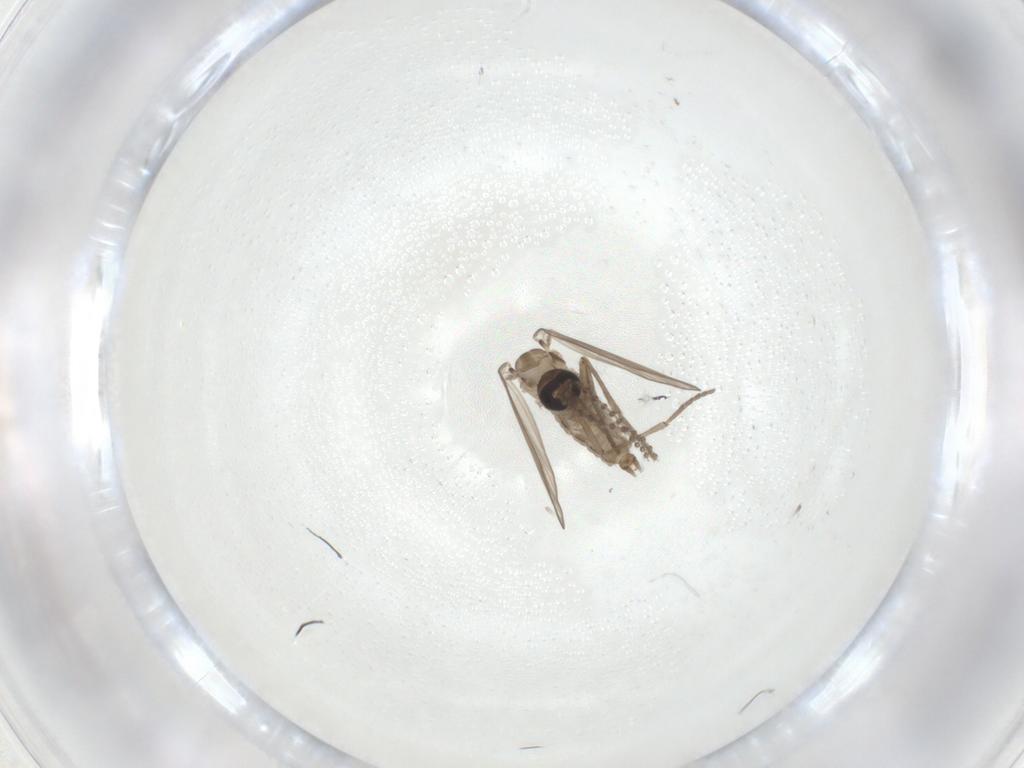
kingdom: Animalia
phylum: Arthropoda
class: Insecta
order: Diptera
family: Psychodidae
